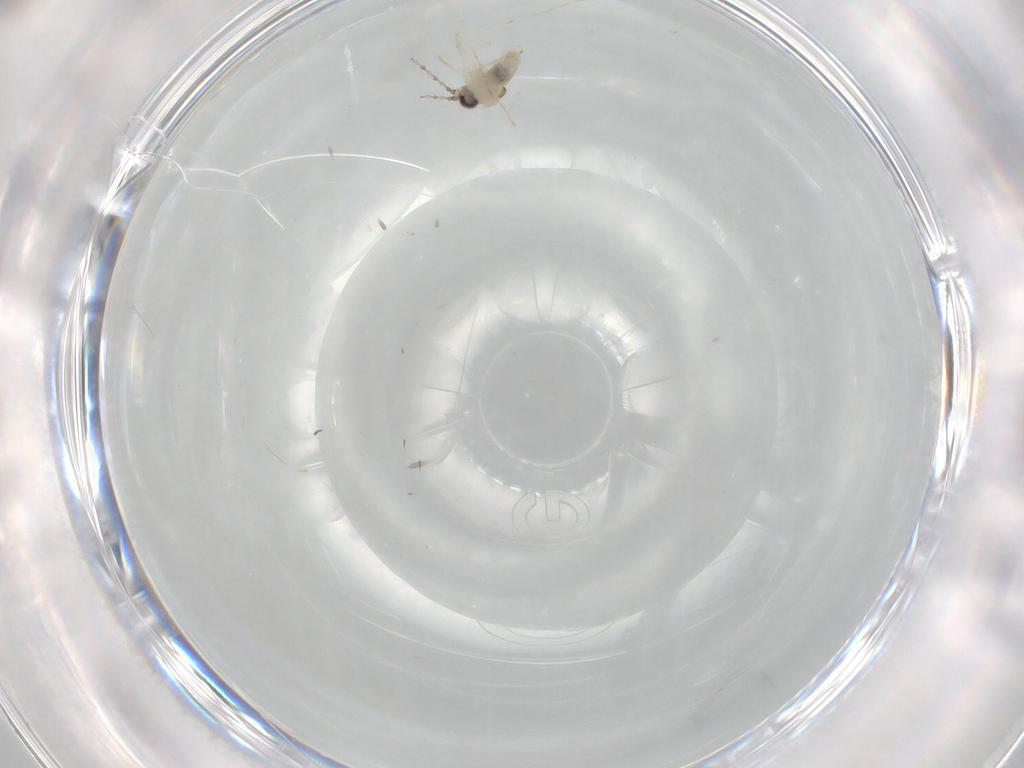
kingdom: Animalia
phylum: Arthropoda
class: Insecta
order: Diptera
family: Cecidomyiidae
